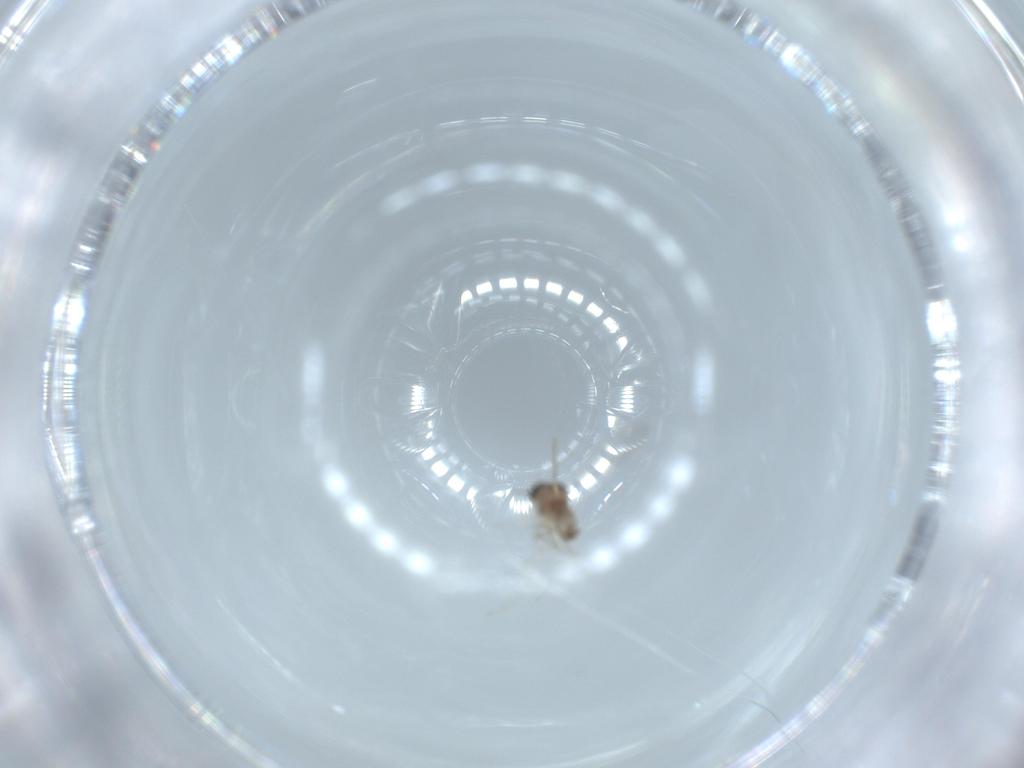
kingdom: Animalia
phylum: Arthropoda
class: Insecta
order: Diptera
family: Cecidomyiidae
